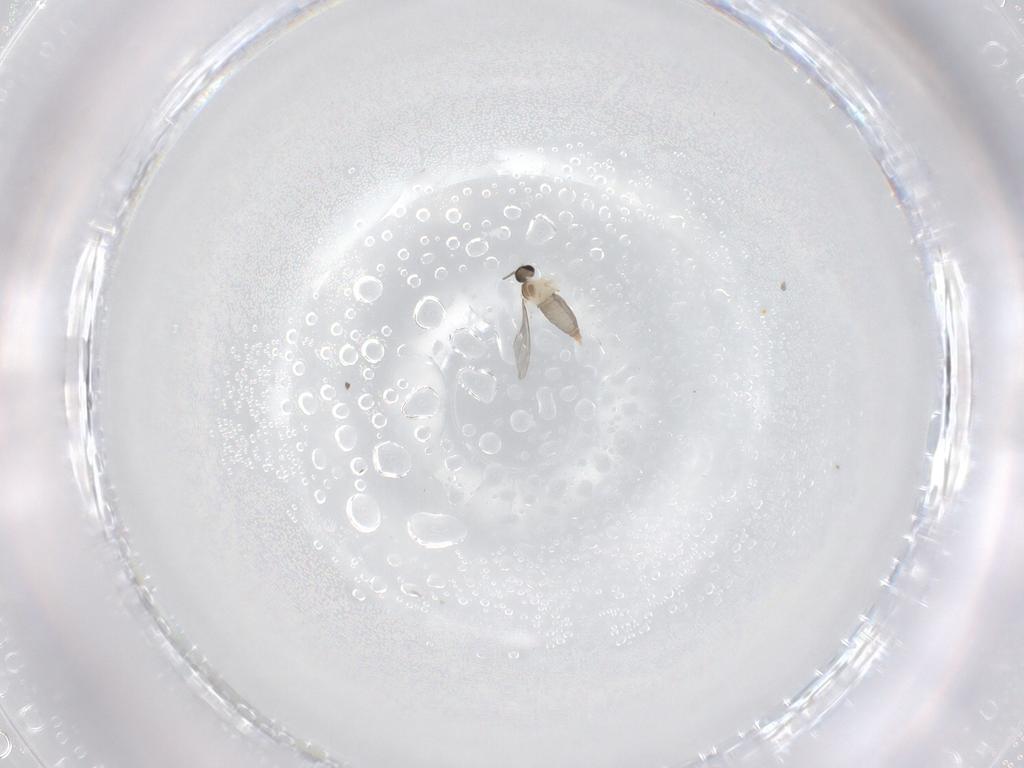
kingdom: Animalia
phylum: Arthropoda
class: Insecta
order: Diptera
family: Cecidomyiidae
